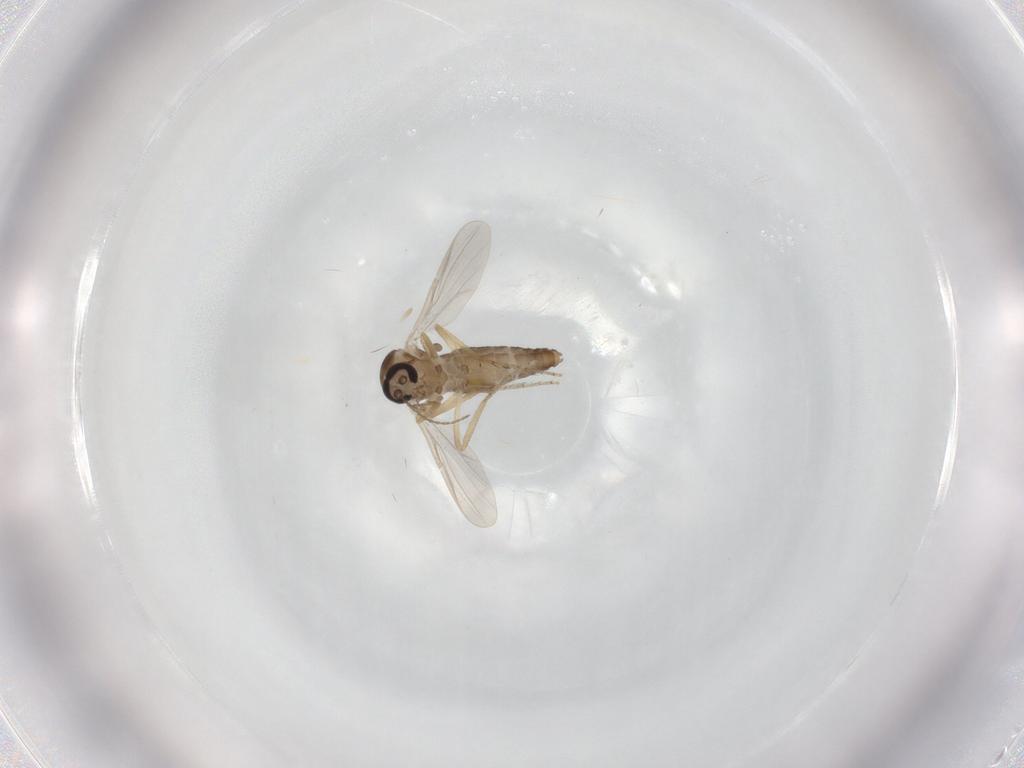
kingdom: Animalia
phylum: Arthropoda
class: Insecta
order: Diptera
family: Ceratopogonidae
